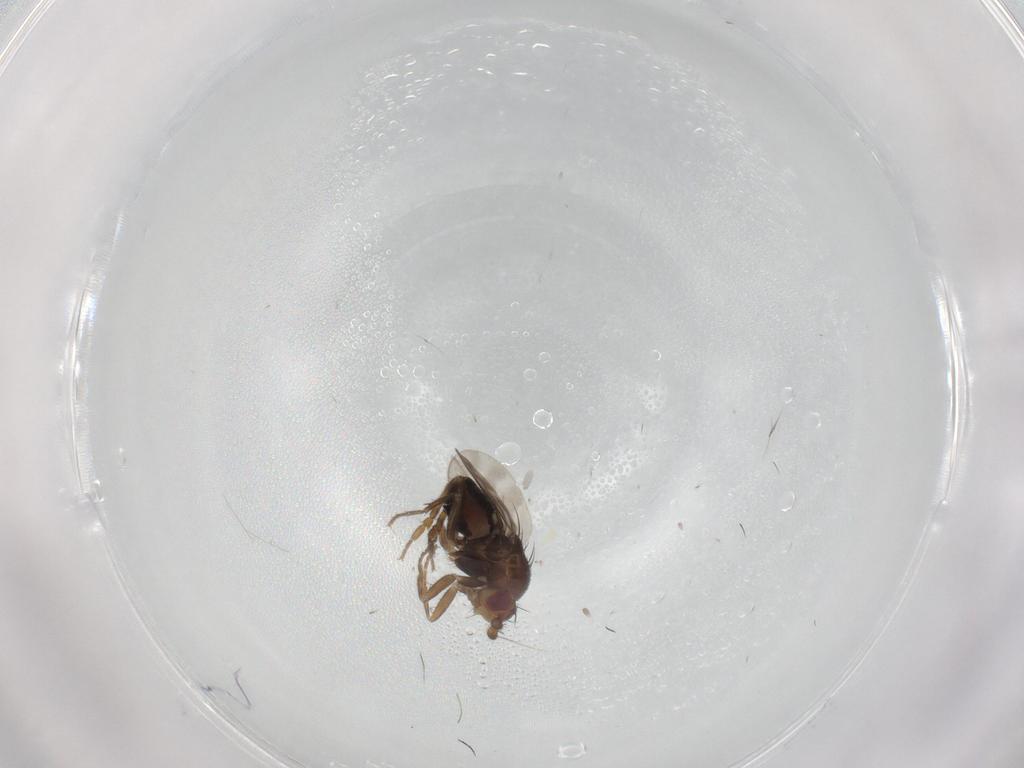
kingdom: Animalia
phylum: Arthropoda
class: Insecta
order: Diptera
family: Sphaeroceridae
